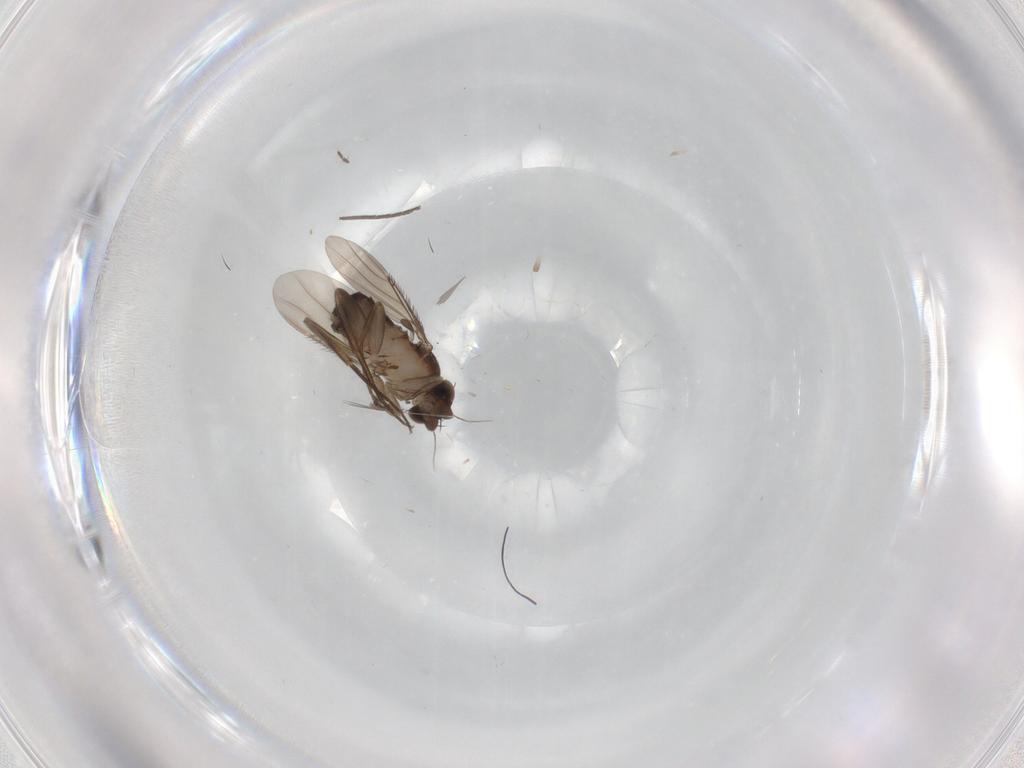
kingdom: Animalia
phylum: Arthropoda
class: Insecta
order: Diptera
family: Phoridae
